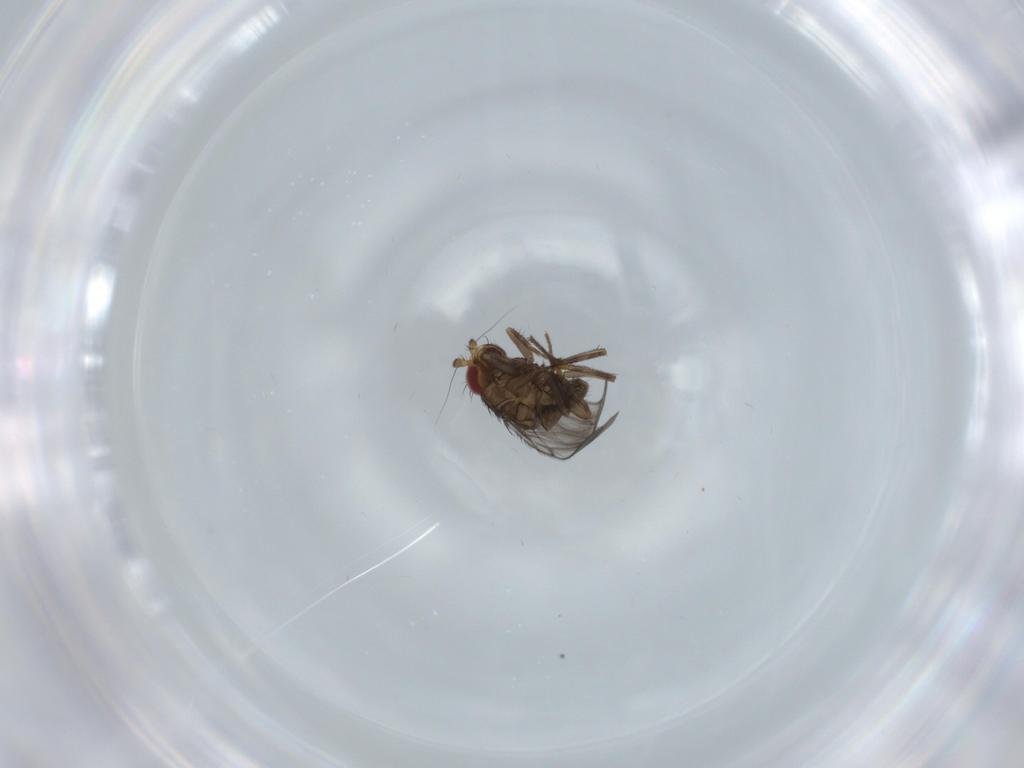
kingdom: Animalia
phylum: Arthropoda
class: Insecta
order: Diptera
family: Sphaeroceridae
